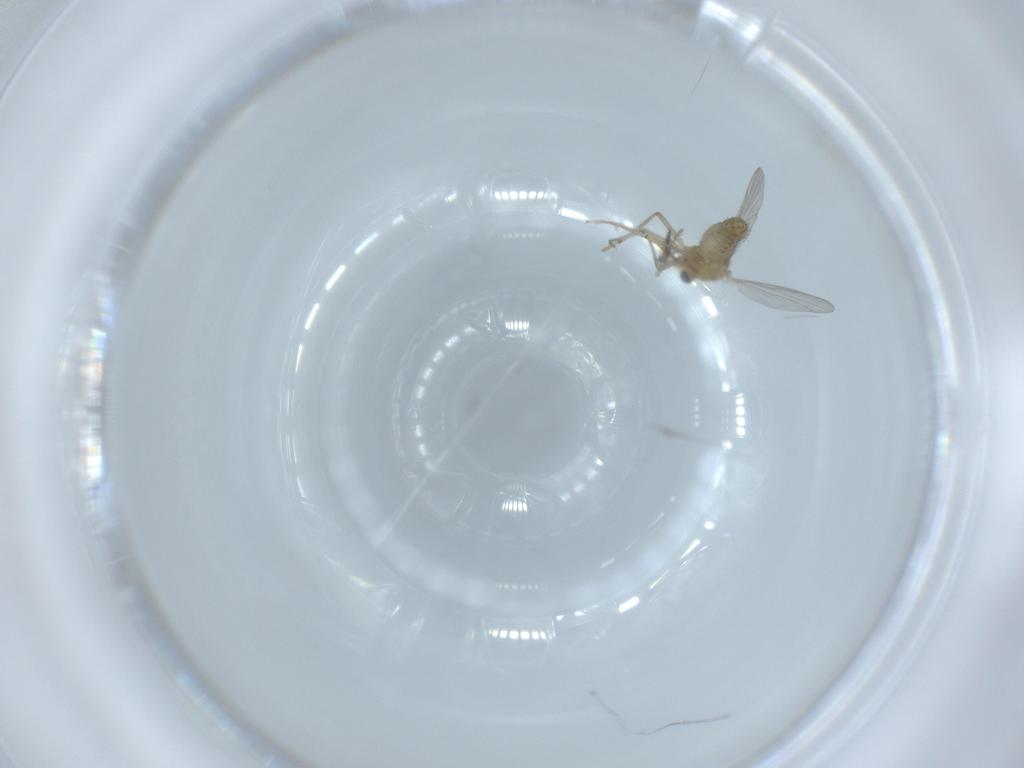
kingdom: Animalia
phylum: Arthropoda
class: Insecta
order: Diptera
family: Chironomidae
